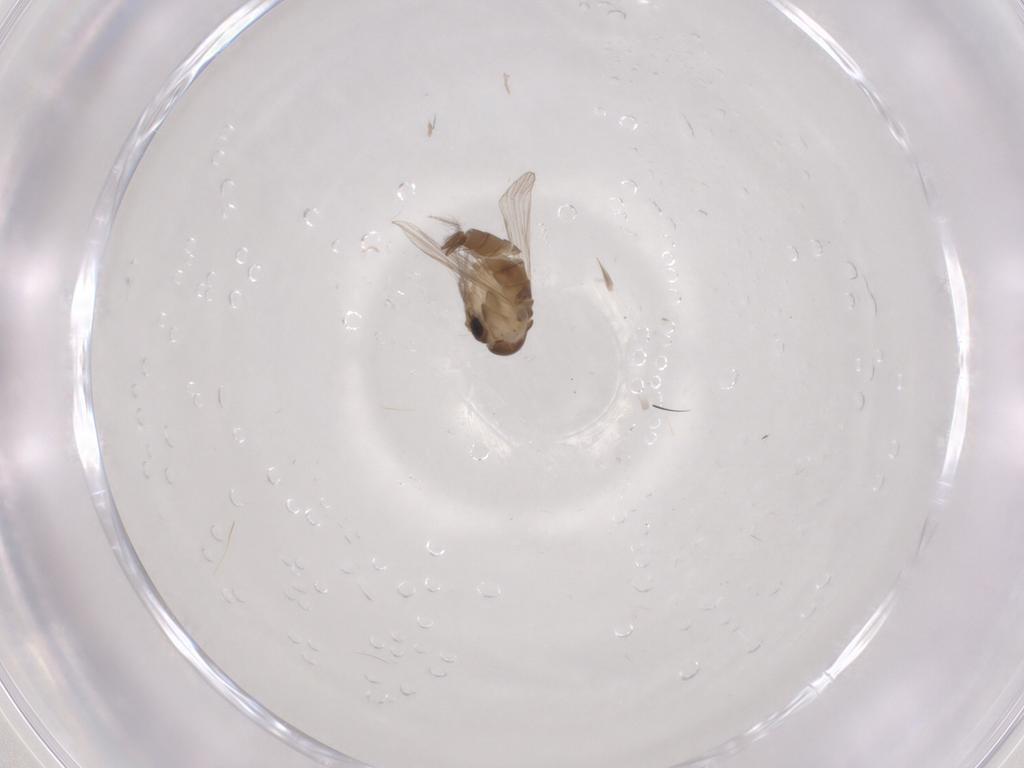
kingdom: Animalia
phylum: Arthropoda
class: Insecta
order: Diptera
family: Psychodidae
